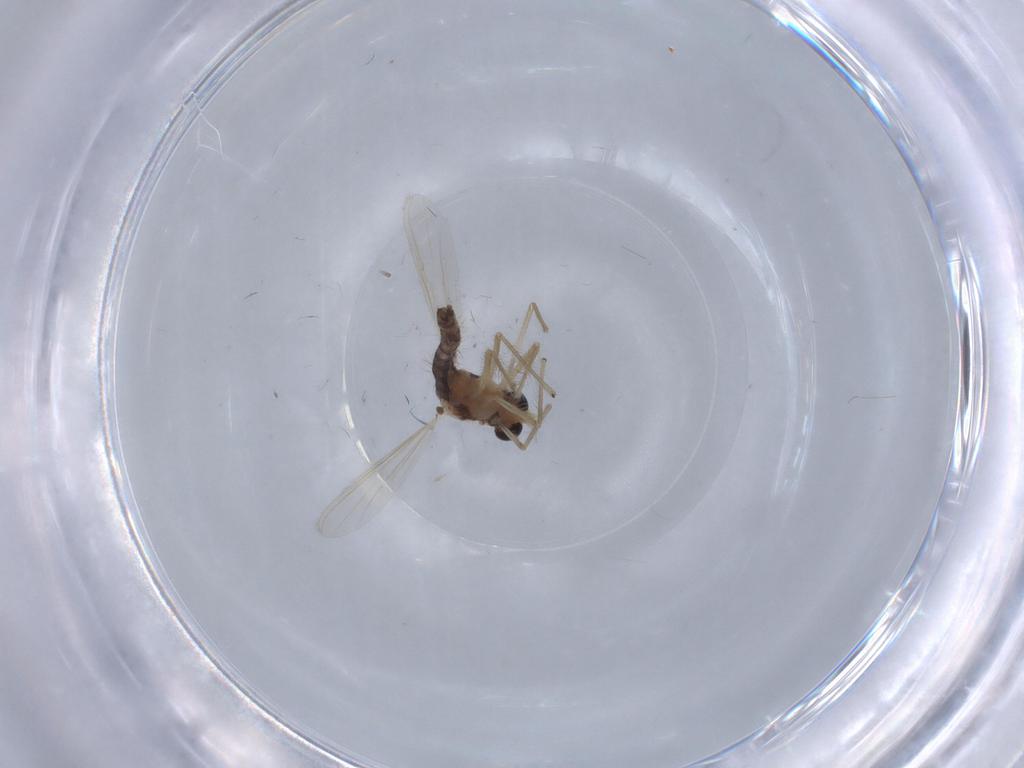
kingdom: Animalia
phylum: Arthropoda
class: Insecta
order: Diptera
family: Chironomidae
